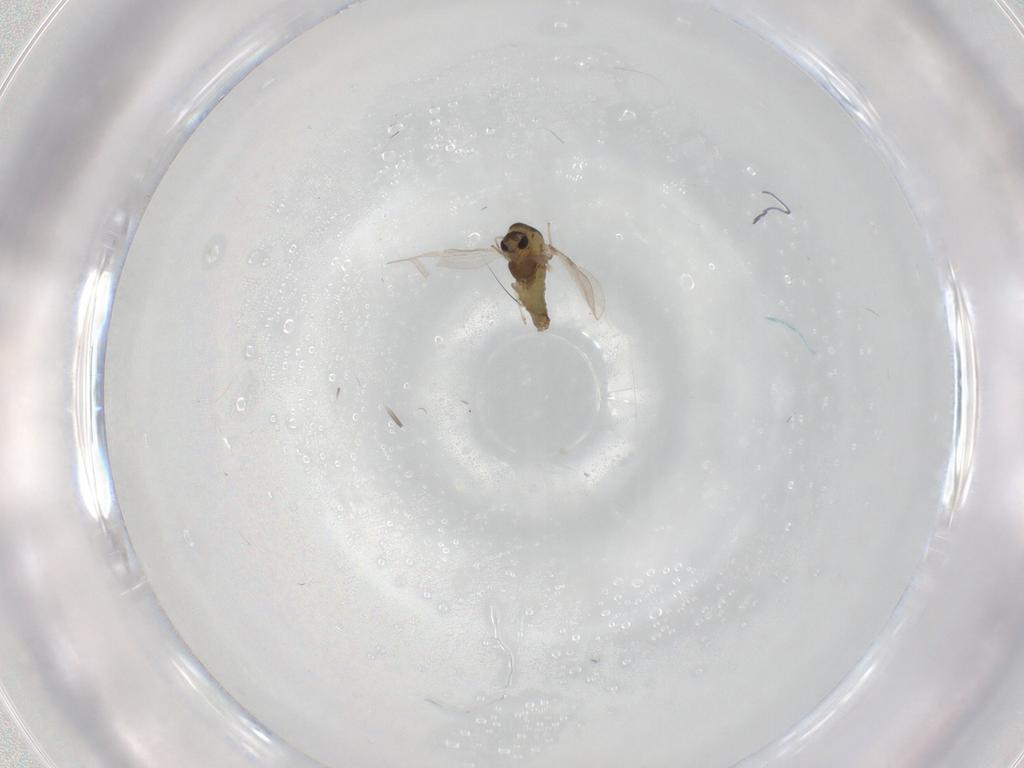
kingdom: Animalia
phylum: Arthropoda
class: Insecta
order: Diptera
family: Chironomidae
